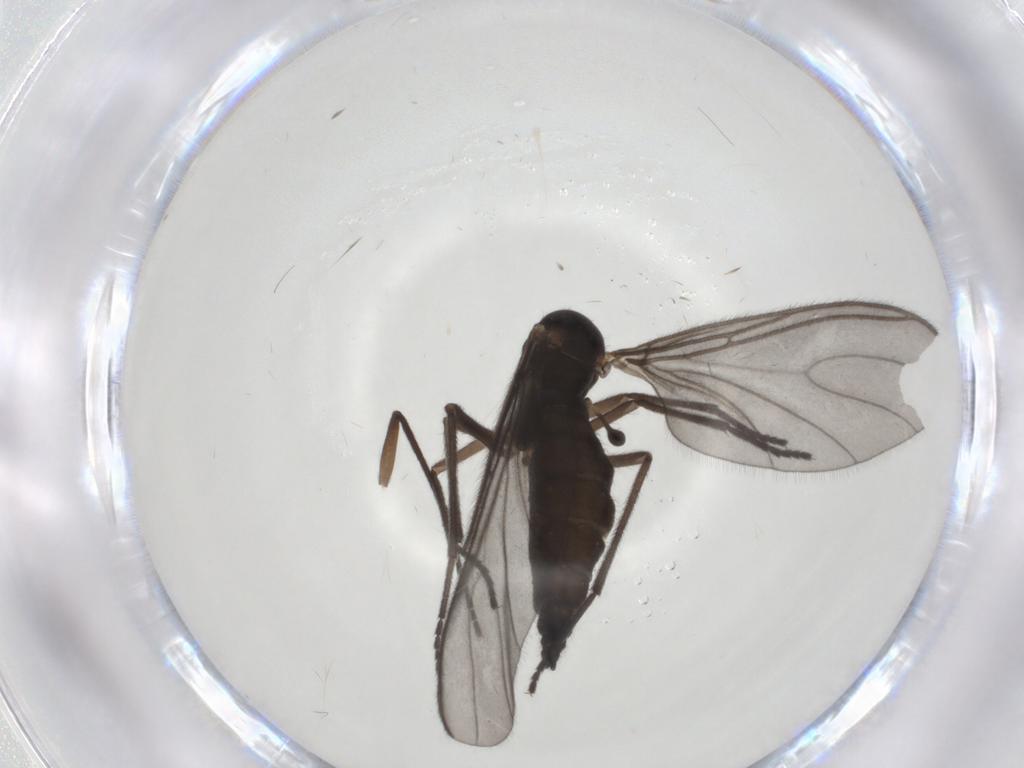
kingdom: Animalia
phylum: Arthropoda
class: Insecta
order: Diptera
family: Sciaridae
